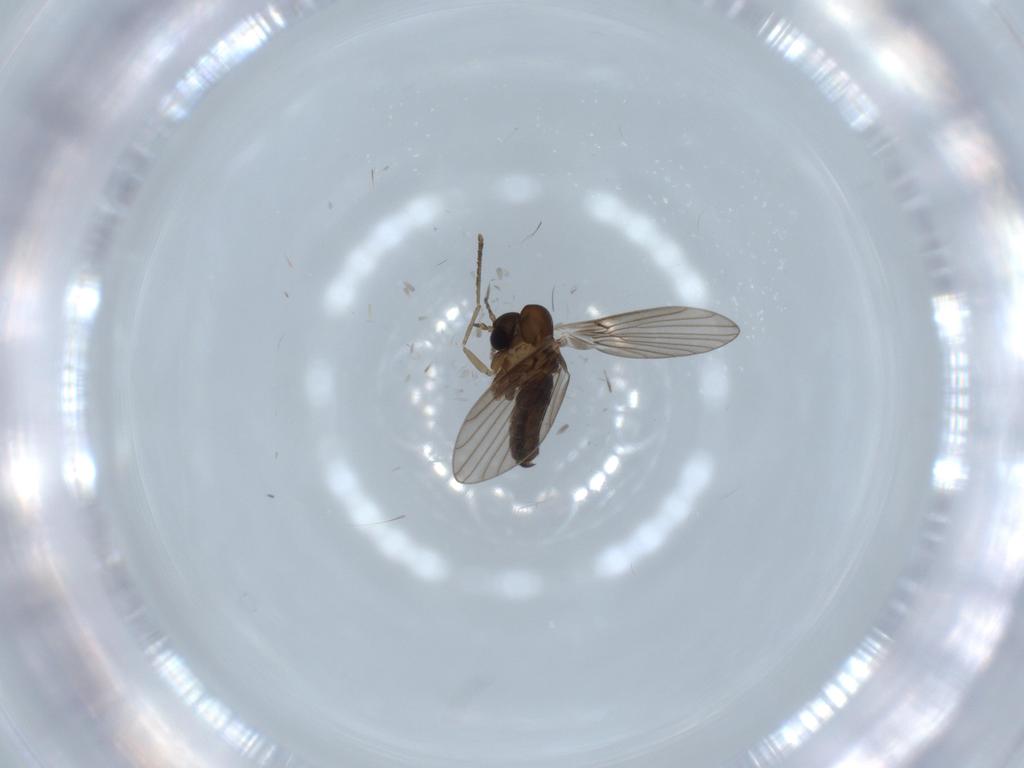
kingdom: Animalia
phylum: Arthropoda
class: Insecta
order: Diptera
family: Psychodidae
